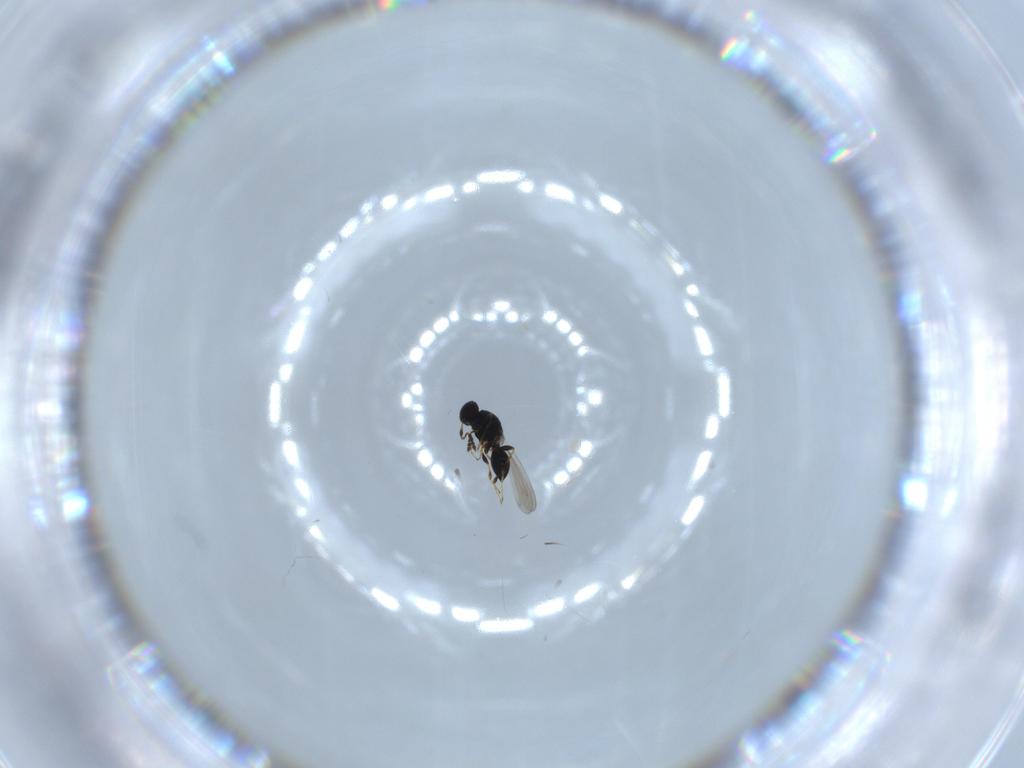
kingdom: Animalia
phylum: Arthropoda
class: Insecta
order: Hymenoptera
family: Platygastridae
